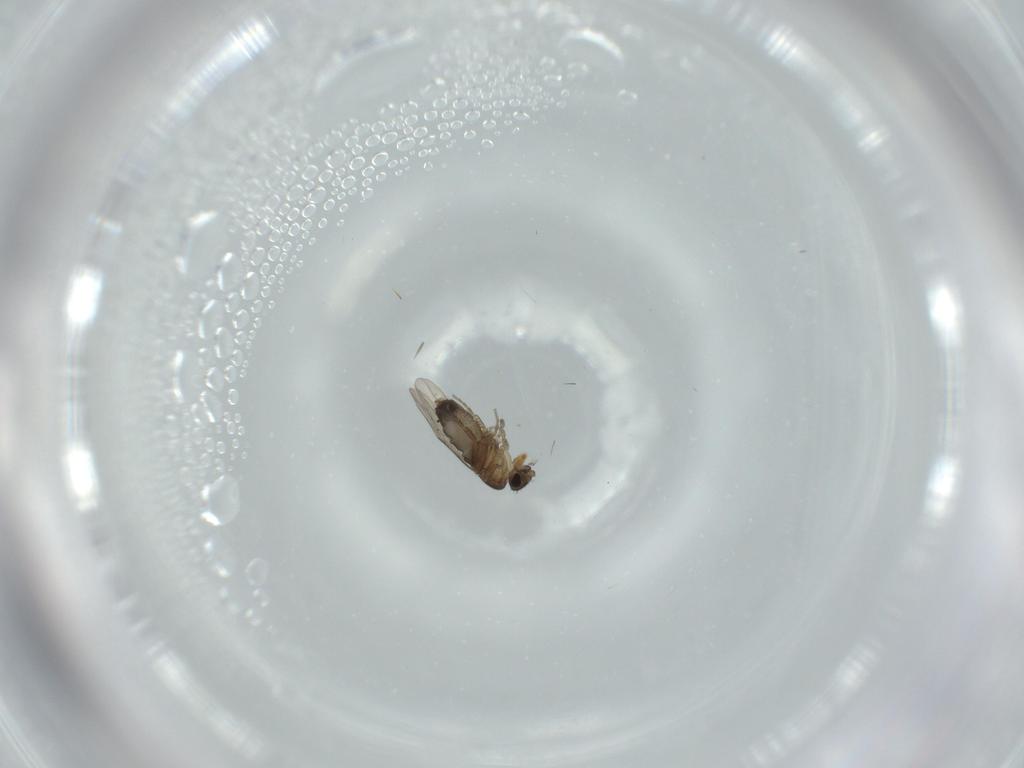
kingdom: Animalia
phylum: Arthropoda
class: Insecta
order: Diptera
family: Phoridae
